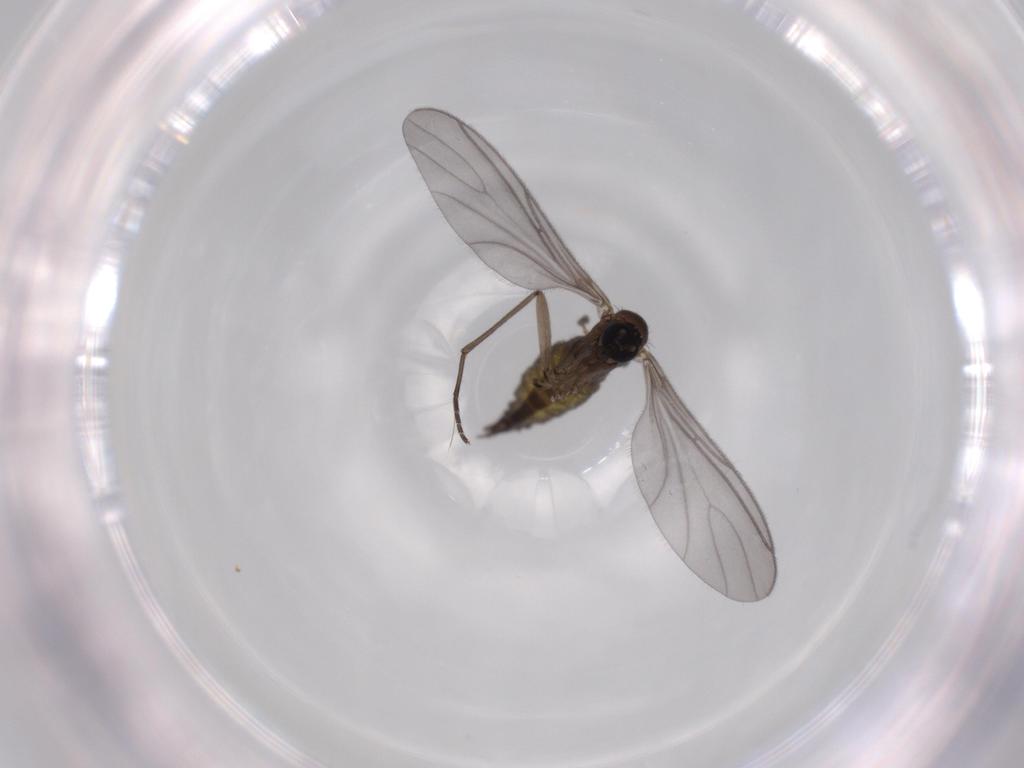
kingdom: Animalia
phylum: Arthropoda
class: Insecta
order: Diptera
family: Sciaridae
